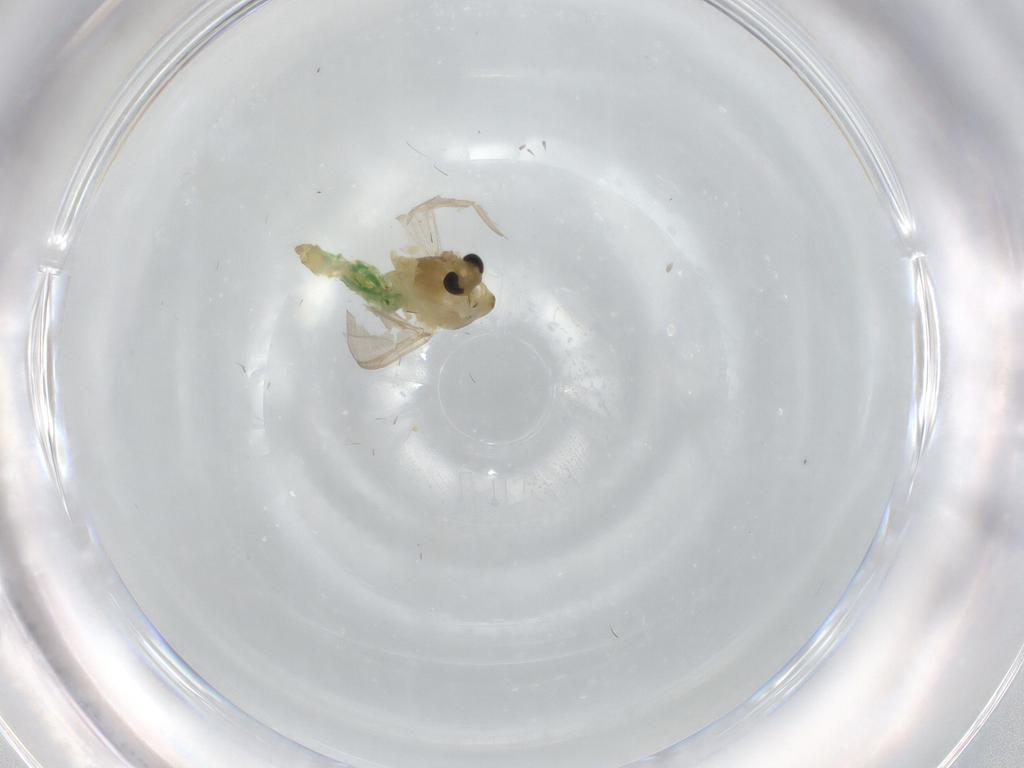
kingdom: Animalia
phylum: Arthropoda
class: Insecta
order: Diptera
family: Chironomidae
